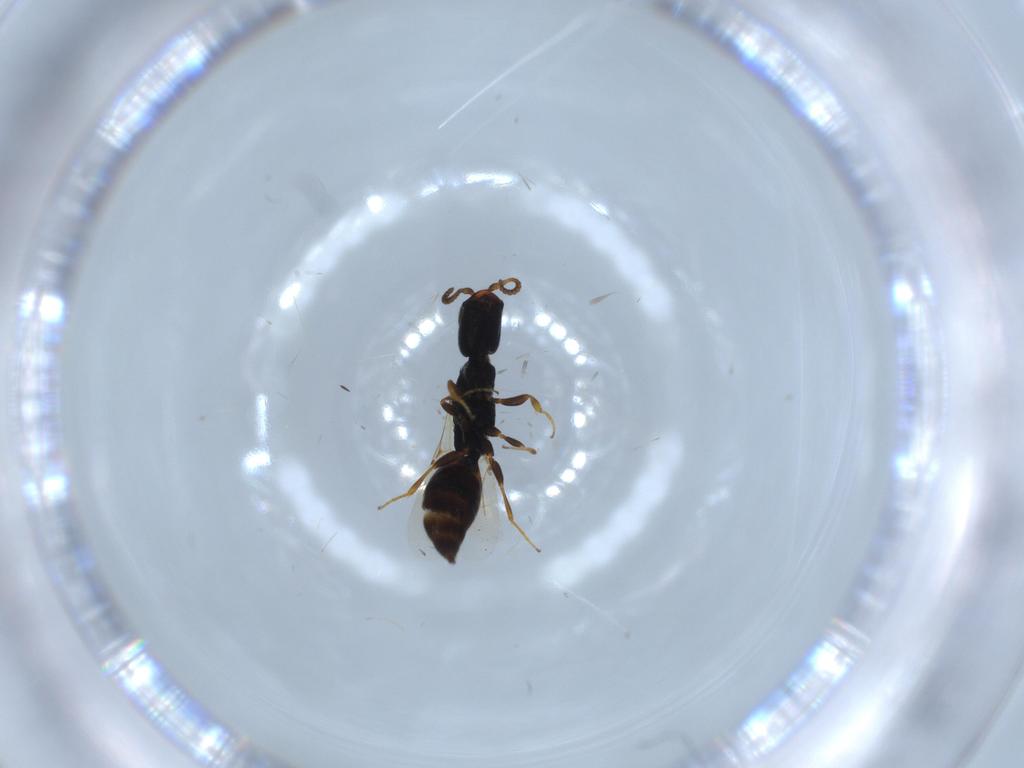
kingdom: Animalia
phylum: Arthropoda
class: Insecta
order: Hymenoptera
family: Bethylidae
